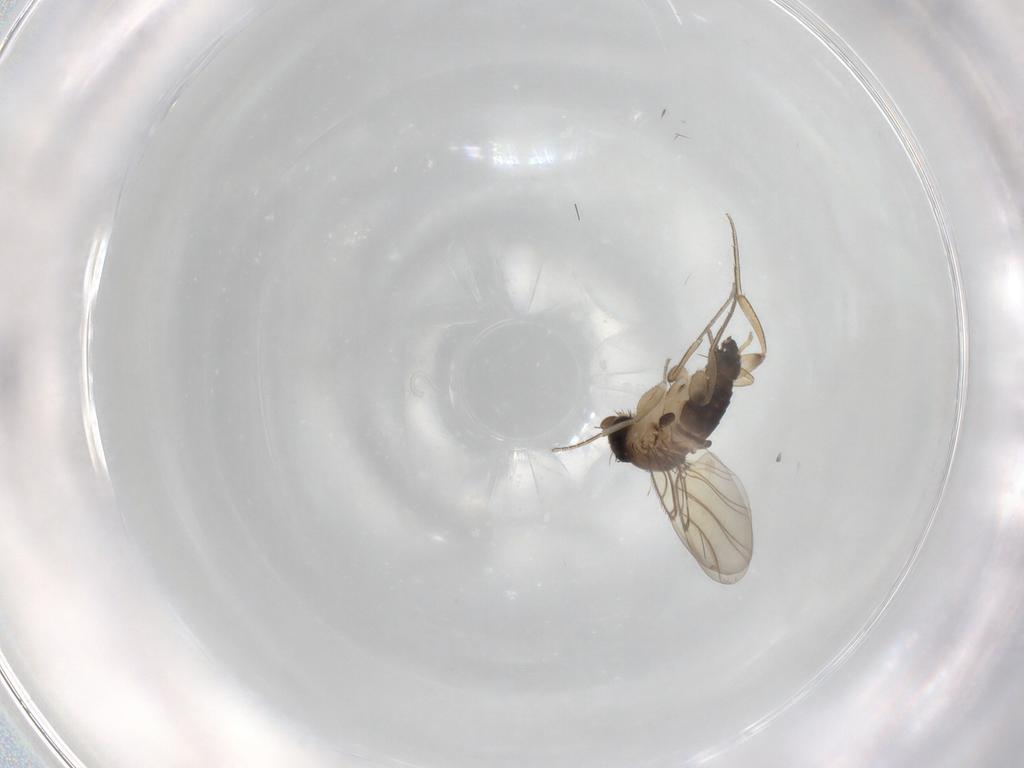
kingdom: Animalia
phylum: Arthropoda
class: Insecta
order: Diptera
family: Phoridae
